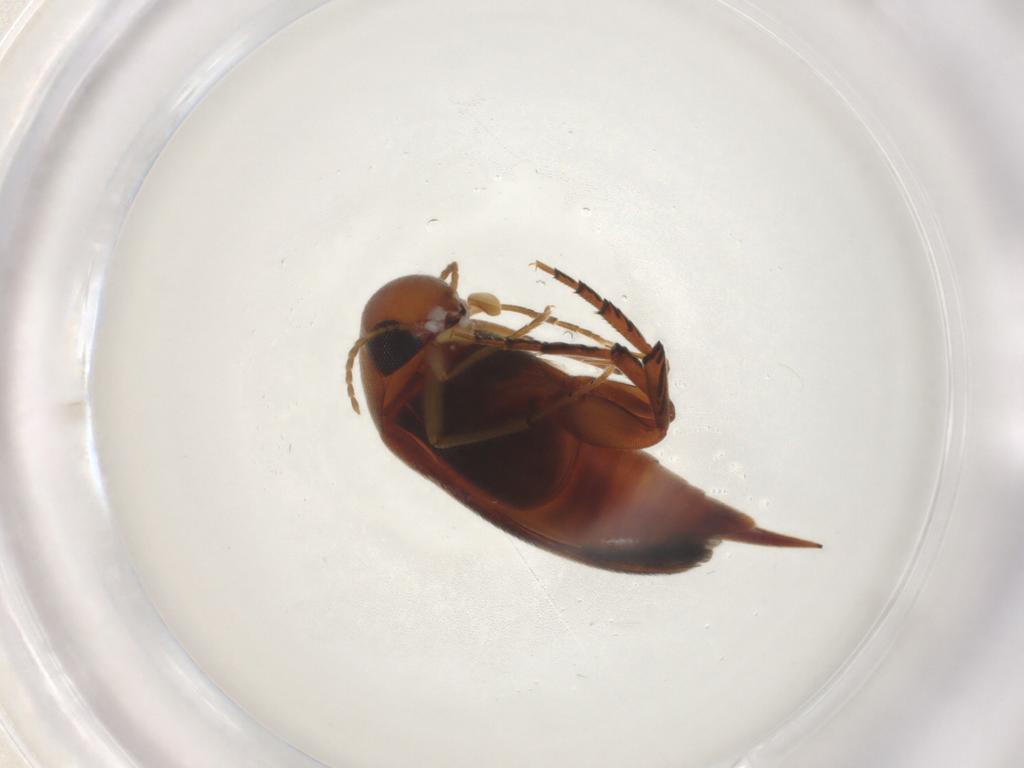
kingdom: Animalia
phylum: Arthropoda
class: Insecta
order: Coleoptera
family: Mordellidae
